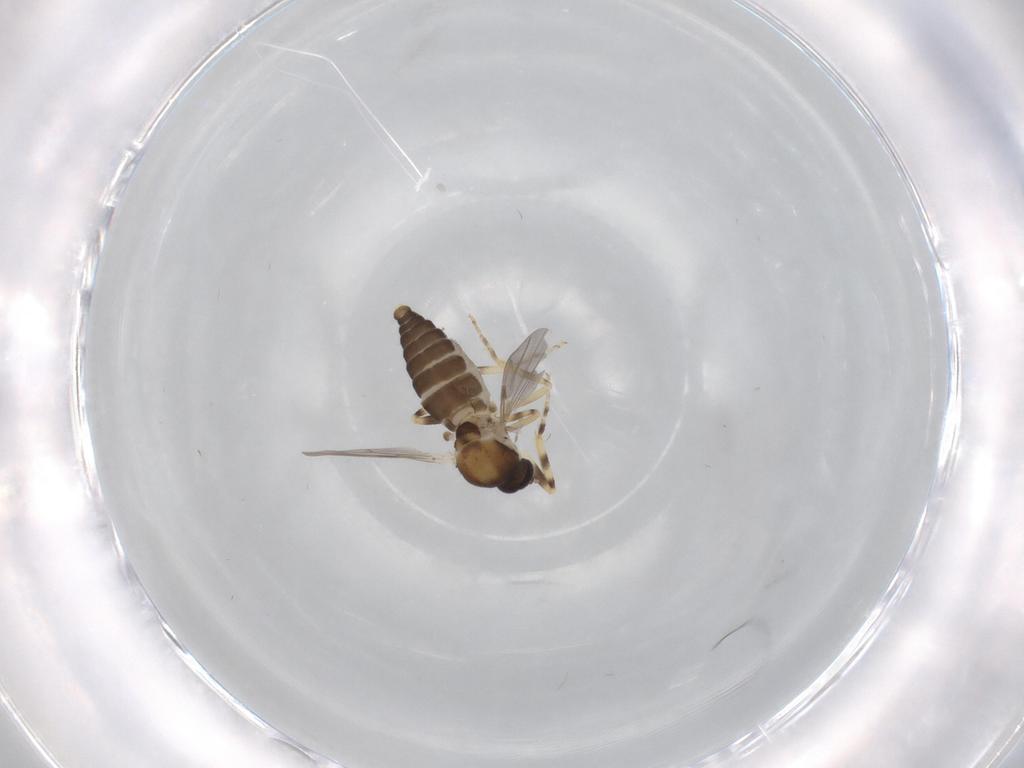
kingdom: Animalia
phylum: Arthropoda
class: Insecta
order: Diptera
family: Ceratopogonidae
